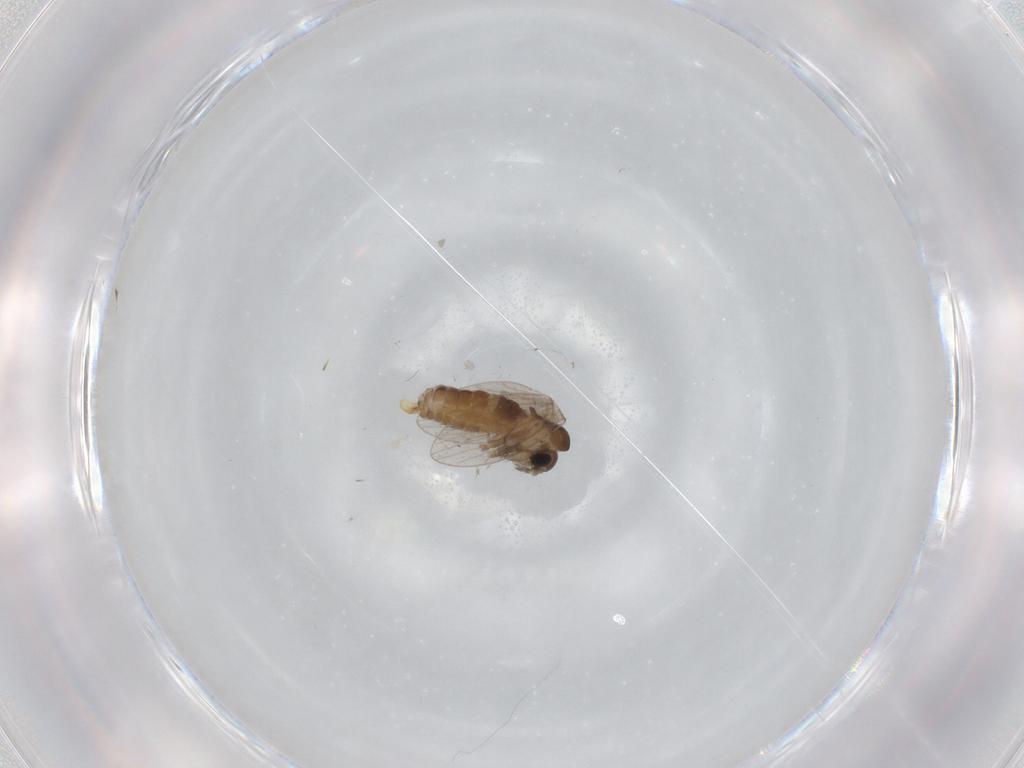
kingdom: Animalia
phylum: Arthropoda
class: Insecta
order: Diptera
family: Psychodidae
